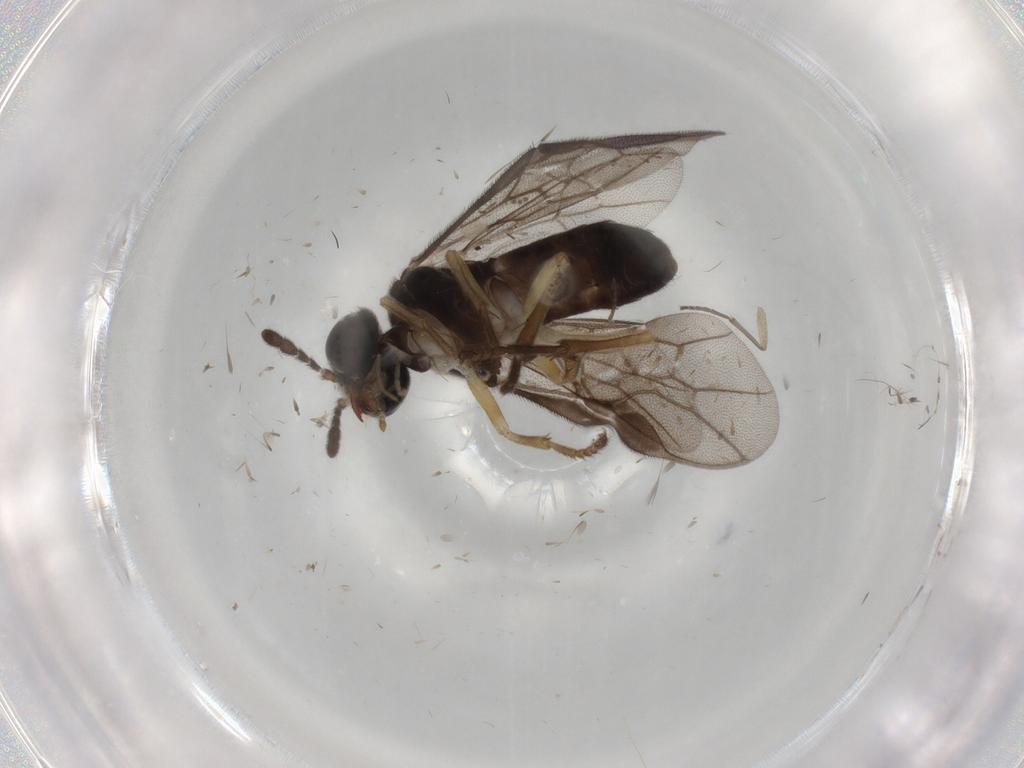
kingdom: Animalia
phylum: Arthropoda
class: Insecta
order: Hymenoptera
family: Pergidae
